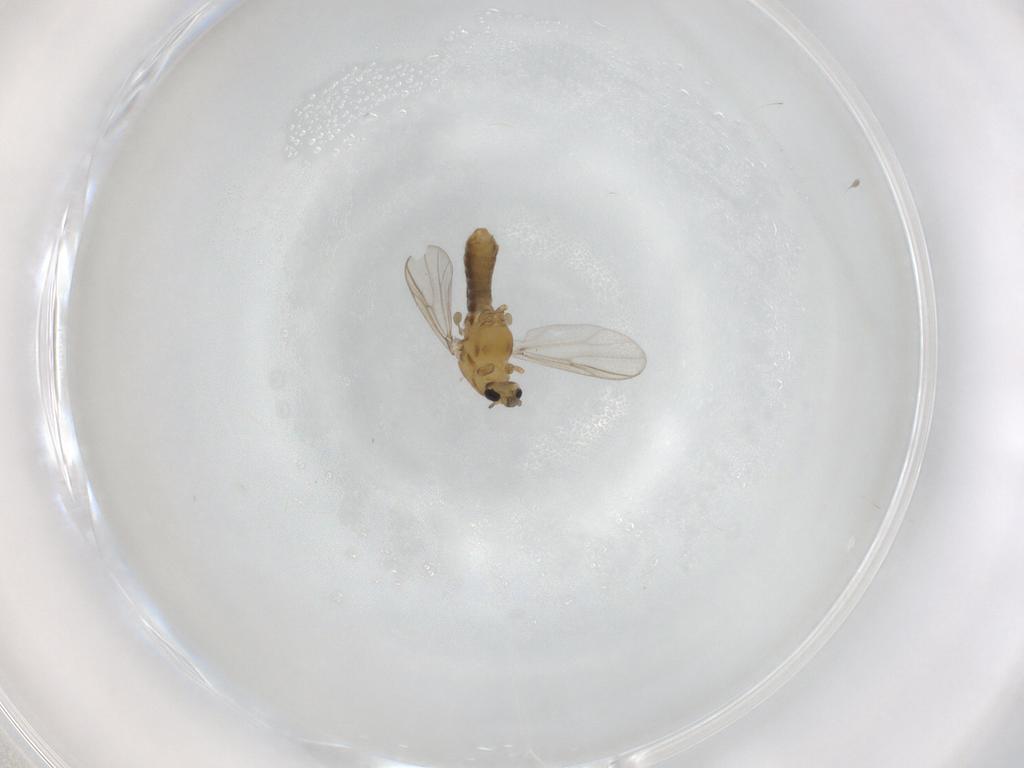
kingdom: Animalia
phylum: Arthropoda
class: Insecta
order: Diptera
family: Chironomidae
